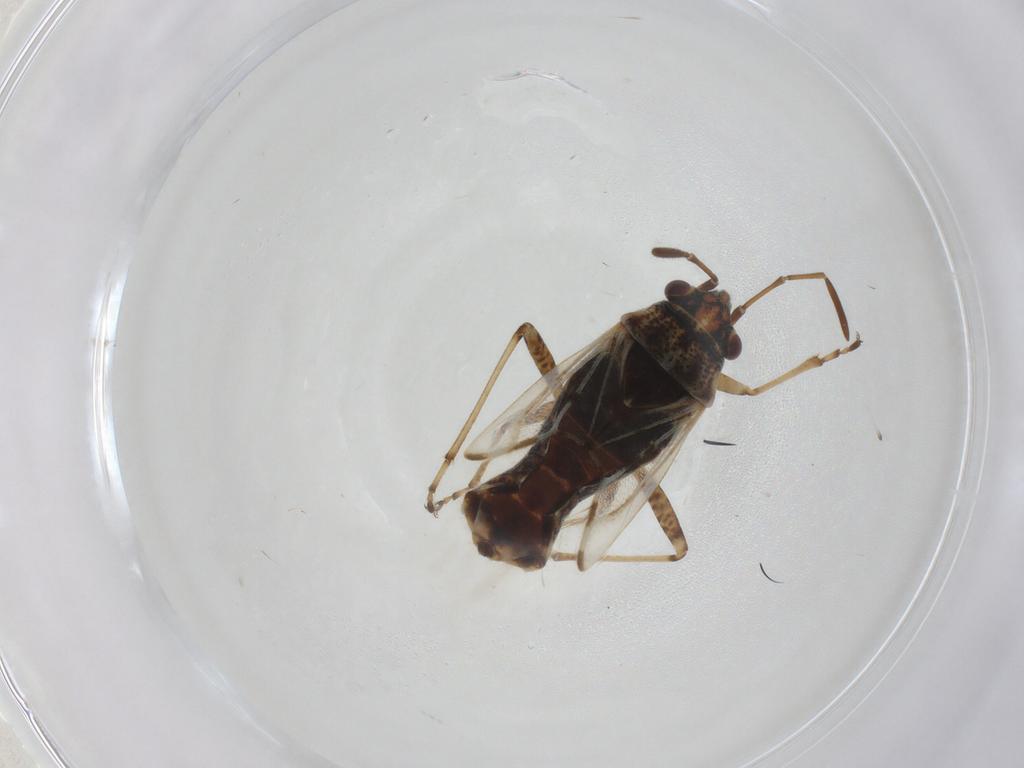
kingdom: Animalia
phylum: Arthropoda
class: Insecta
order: Hemiptera
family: Lygaeidae
